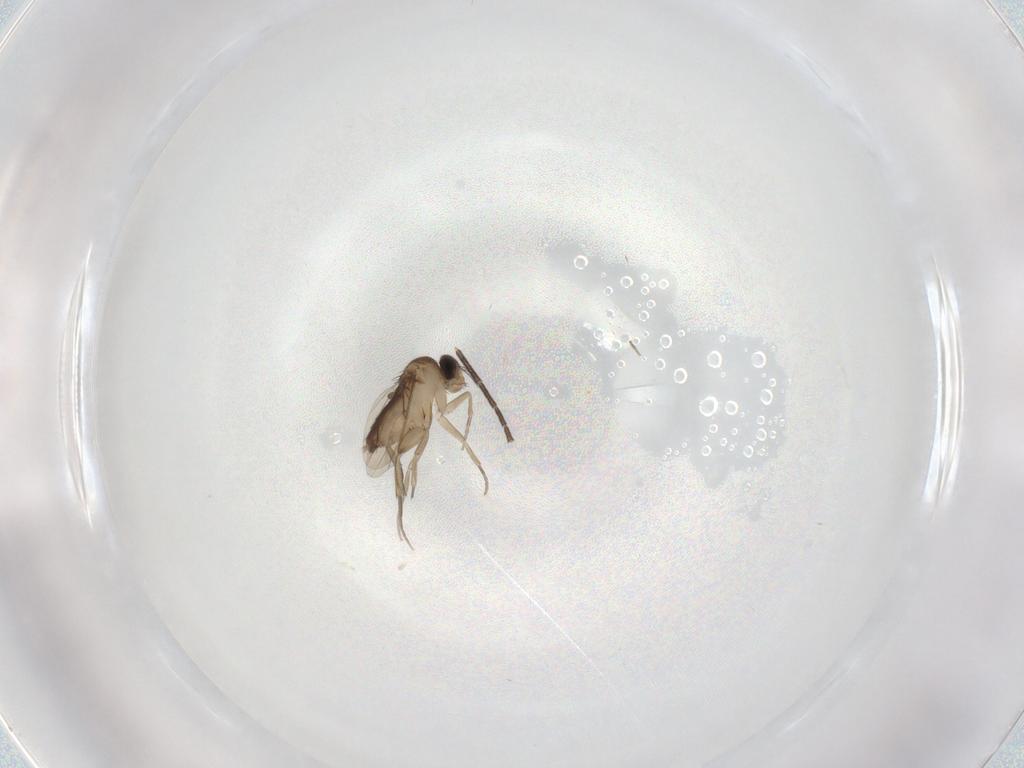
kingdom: Animalia
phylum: Arthropoda
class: Insecta
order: Diptera
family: Phoridae
